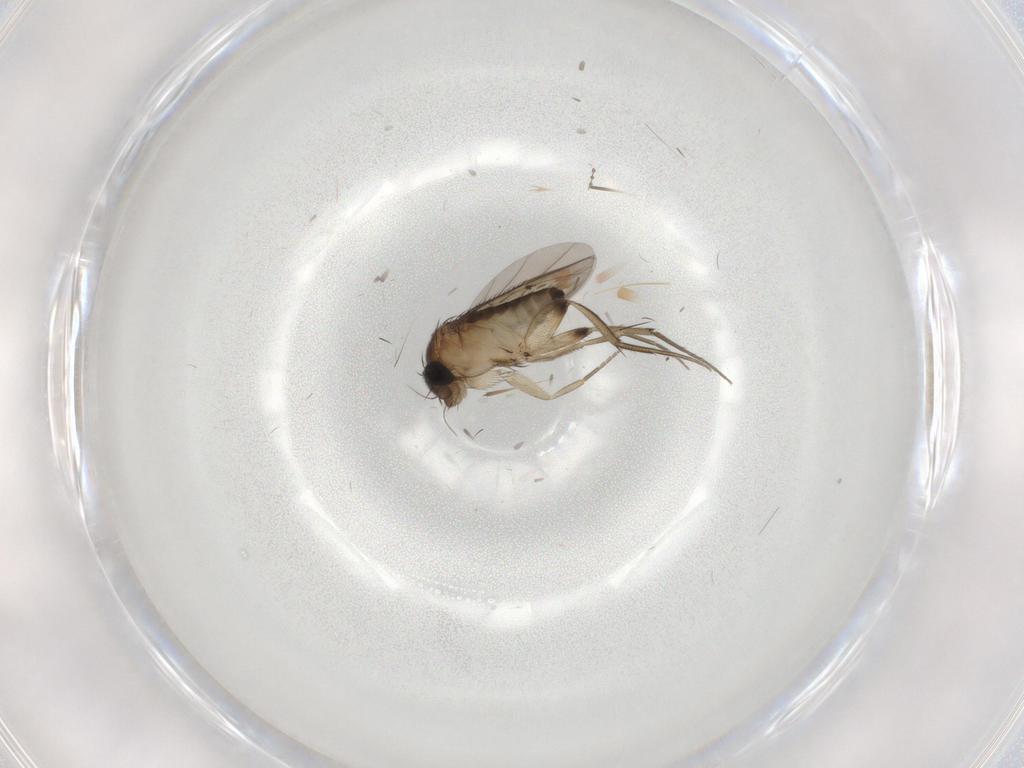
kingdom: Animalia
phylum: Arthropoda
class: Insecta
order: Diptera
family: Phoridae
